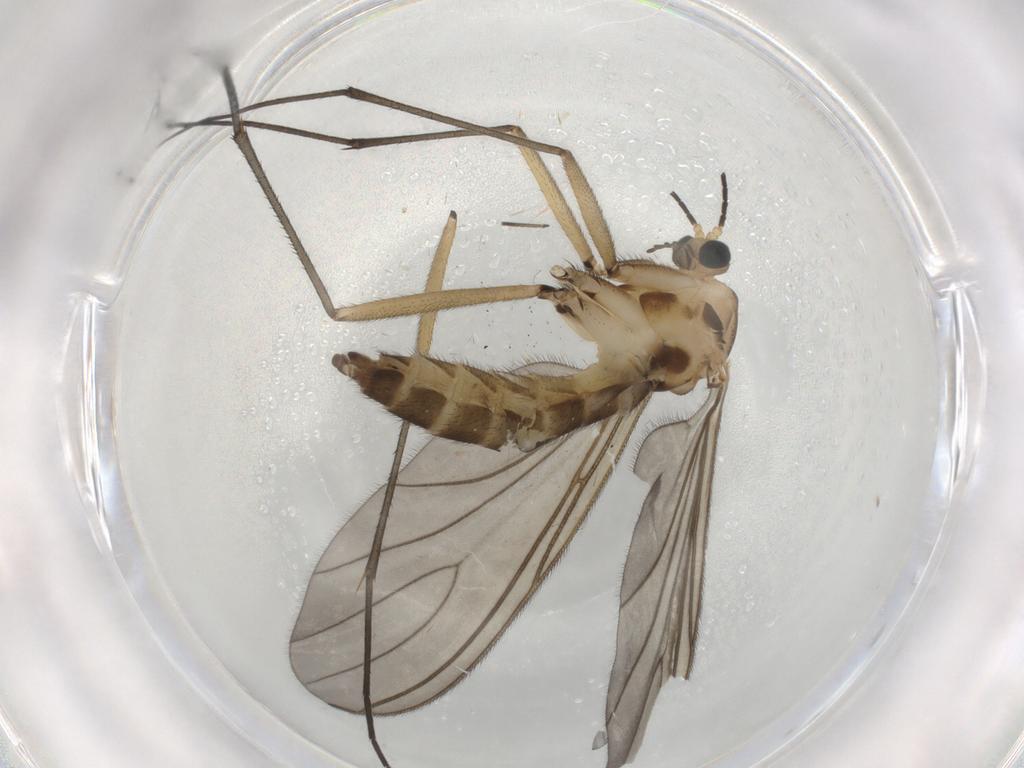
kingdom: Animalia
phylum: Arthropoda
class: Insecta
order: Diptera
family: Sciaridae
